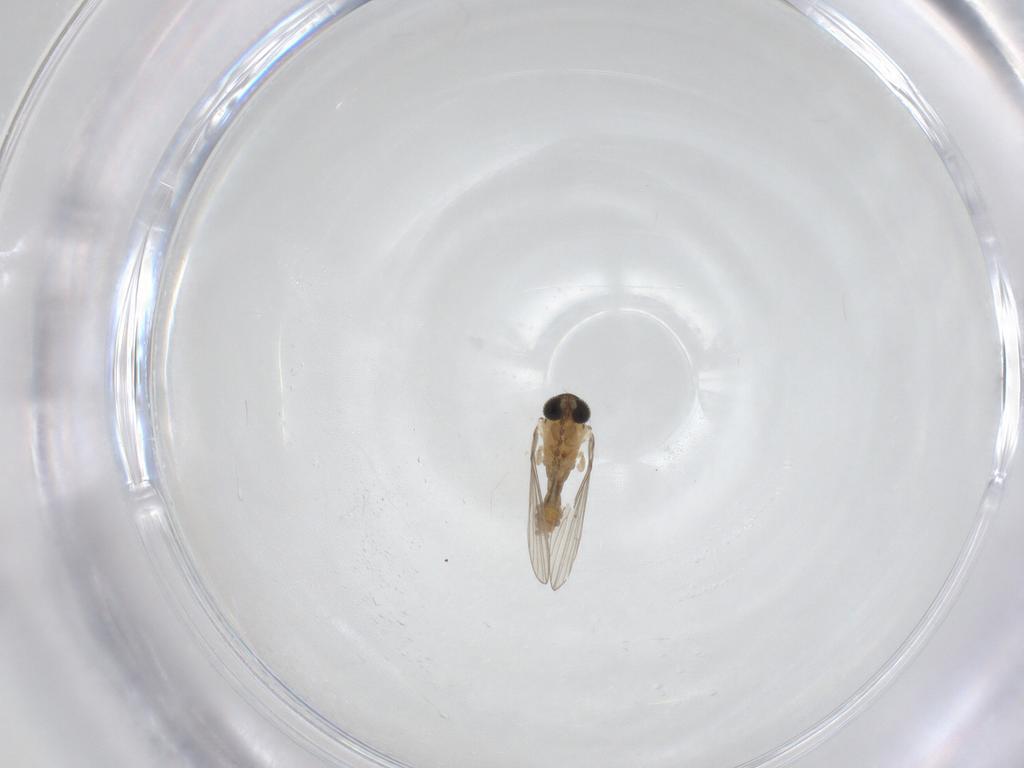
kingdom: Animalia
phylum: Arthropoda
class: Insecta
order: Diptera
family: Psychodidae
